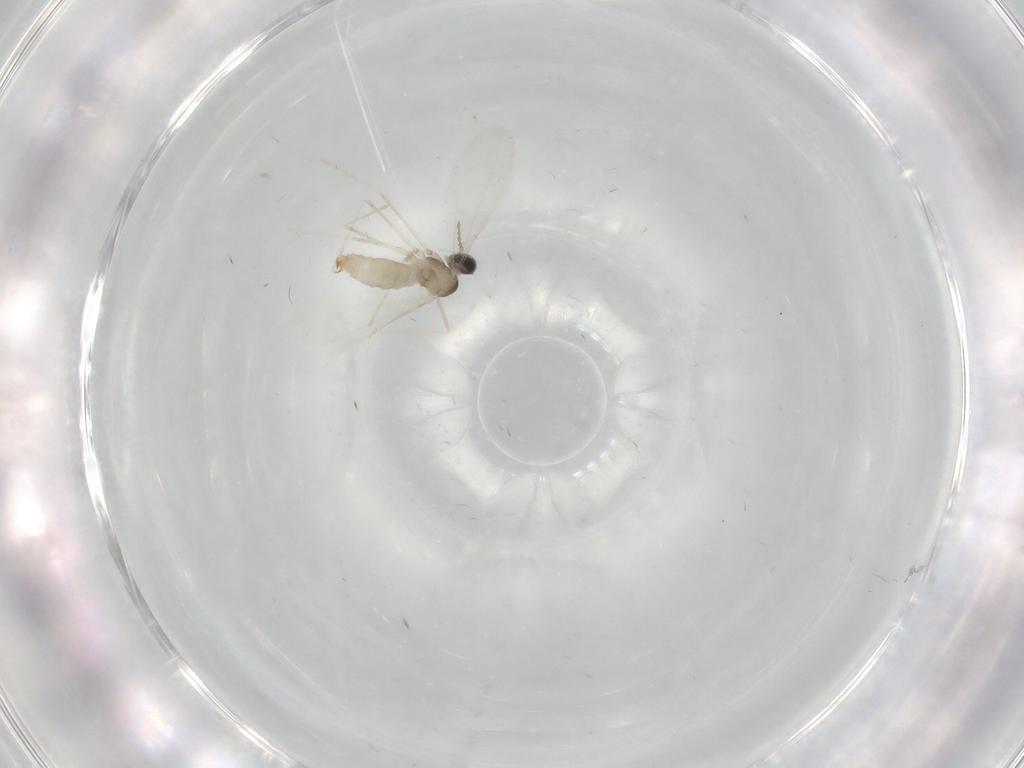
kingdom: Animalia
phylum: Arthropoda
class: Insecta
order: Diptera
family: Cecidomyiidae
